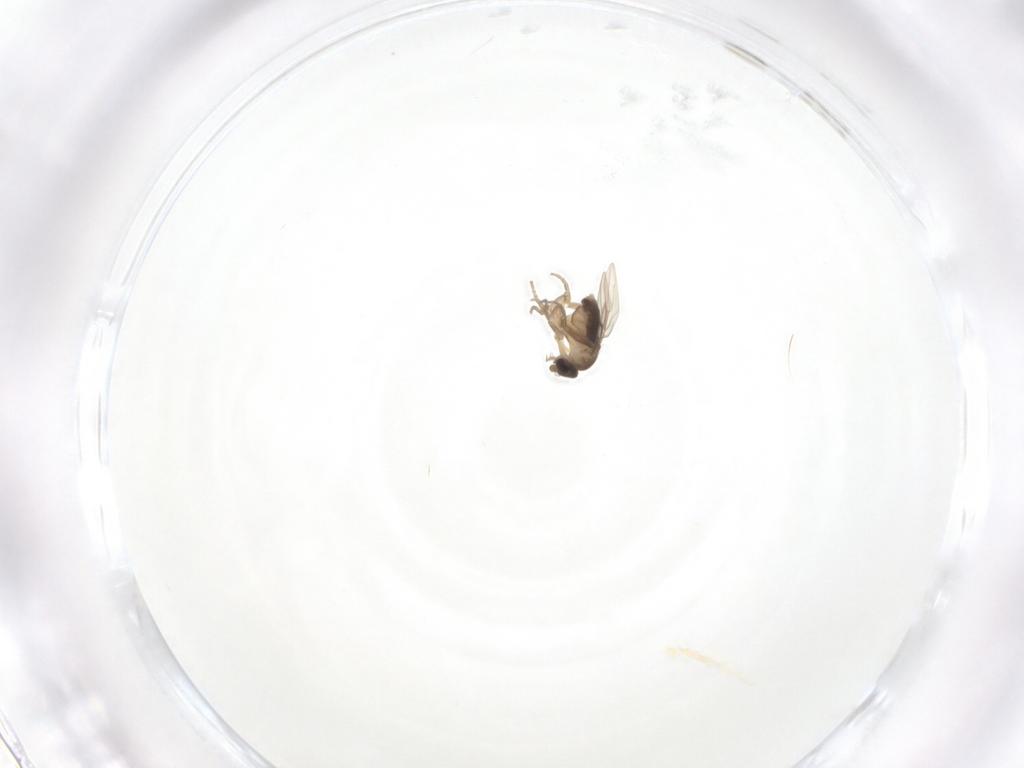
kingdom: Animalia
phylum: Arthropoda
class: Insecta
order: Diptera
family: Phoridae
